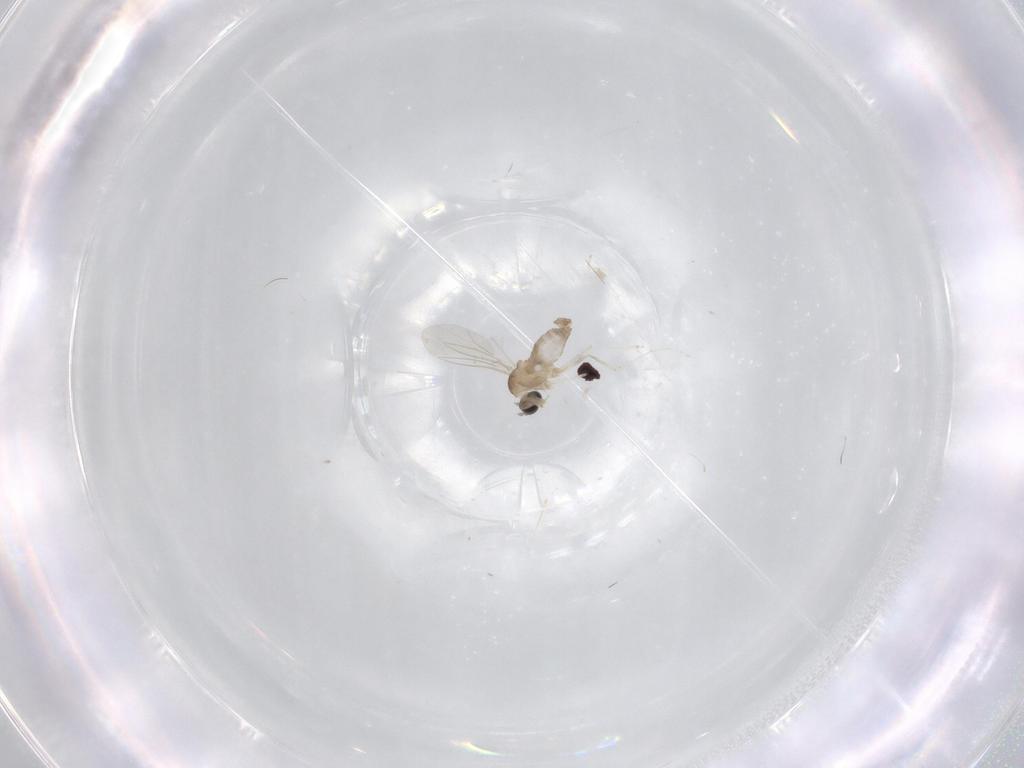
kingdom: Animalia
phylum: Arthropoda
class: Insecta
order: Diptera
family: Cecidomyiidae
